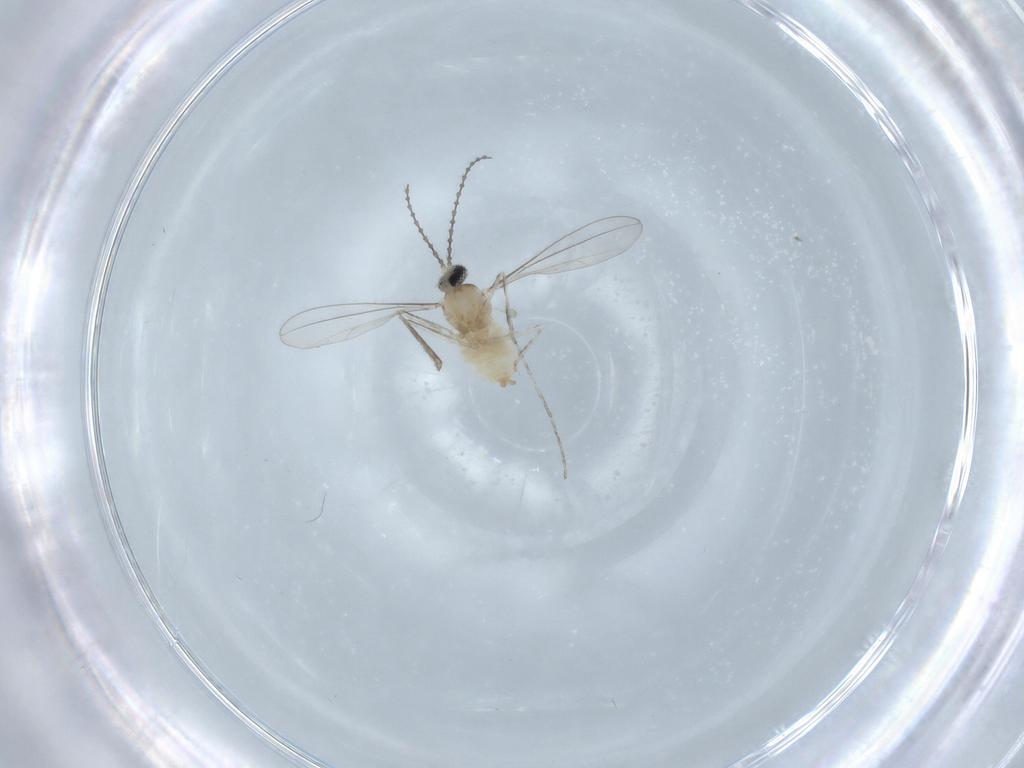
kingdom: Animalia
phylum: Arthropoda
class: Insecta
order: Diptera
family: Cecidomyiidae
